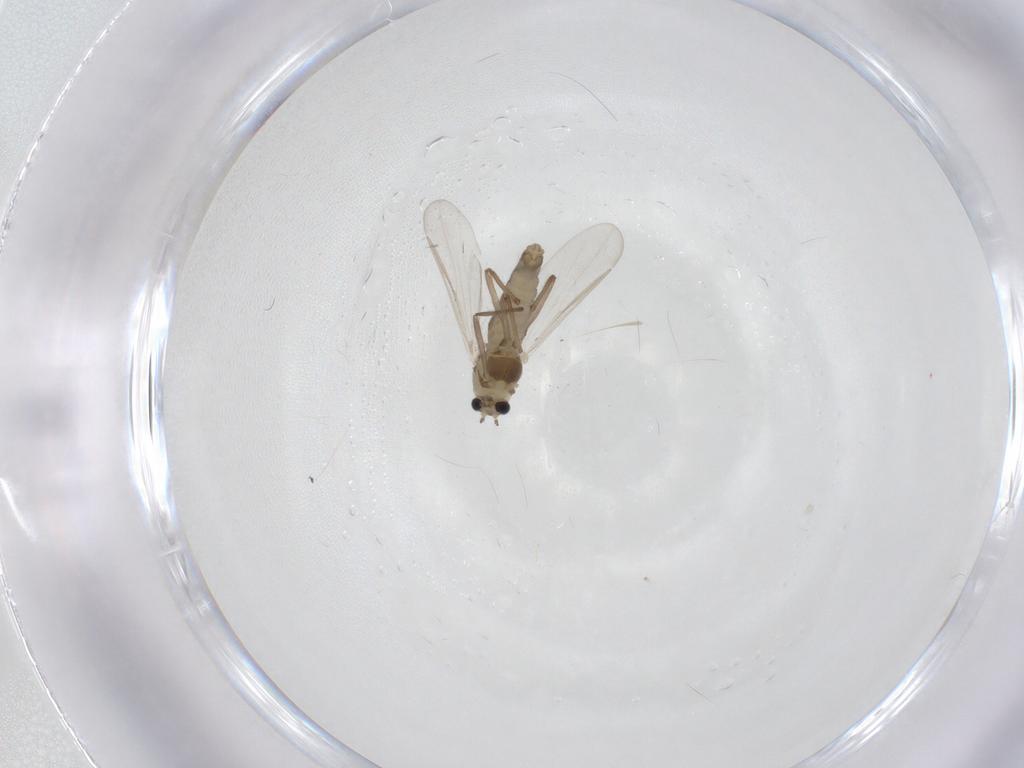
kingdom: Animalia
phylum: Arthropoda
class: Insecta
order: Diptera
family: Chironomidae
